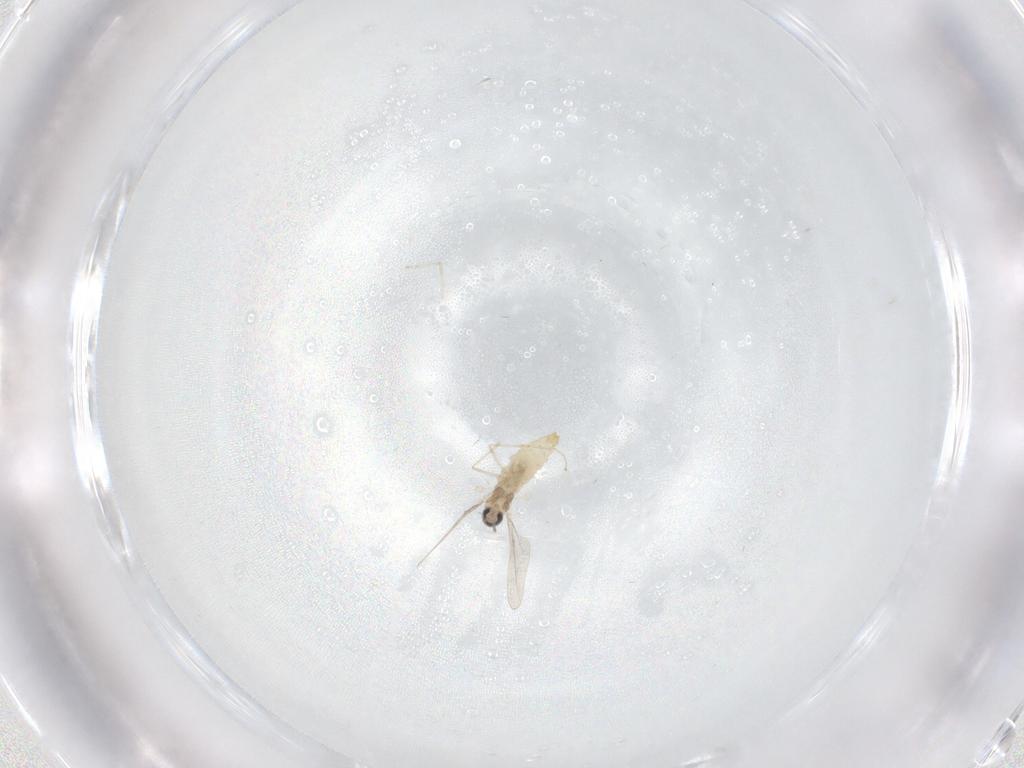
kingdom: Animalia
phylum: Arthropoda
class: Insecta
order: Diptera
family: Cecidomyiidae
